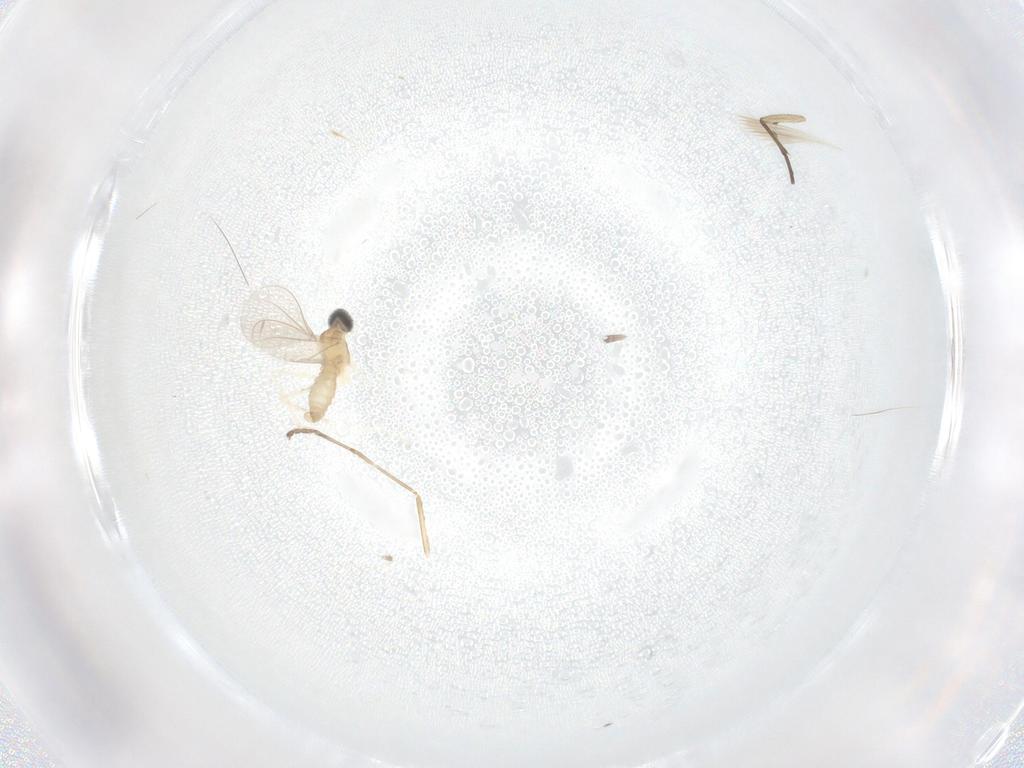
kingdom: Animalia
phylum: Arthropoda
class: Insecta
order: Diptera
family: Cecidomyiidae
